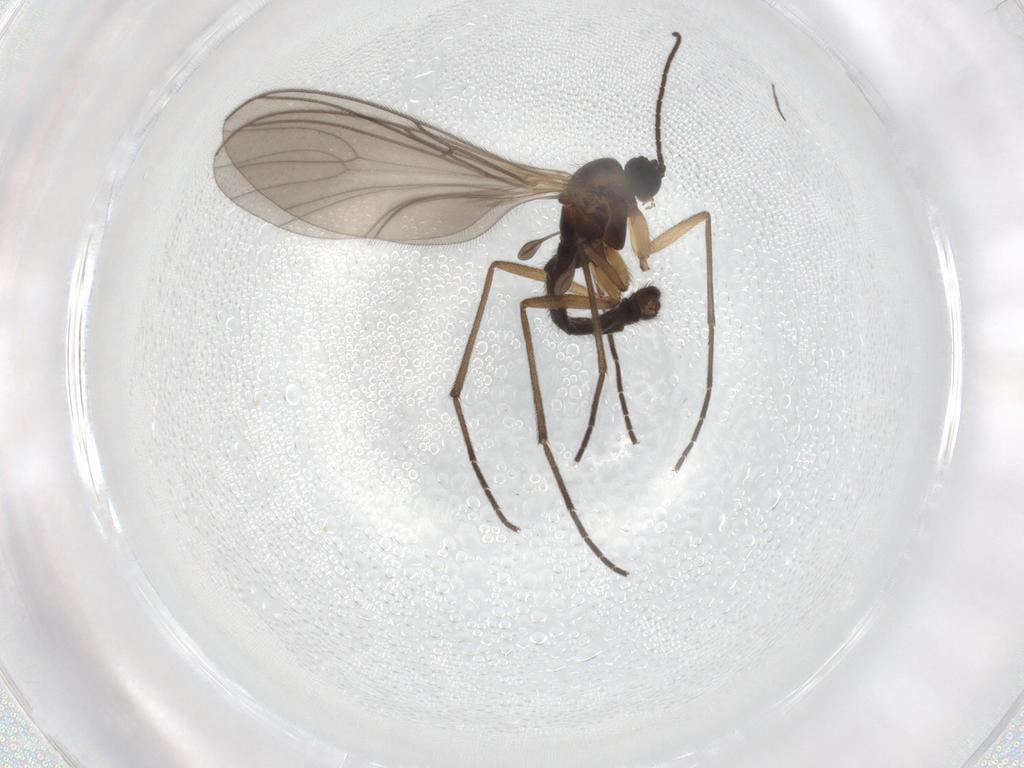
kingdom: Animalia
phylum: Arthropoda
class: Insecta
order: Diptera
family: Sciaridae
